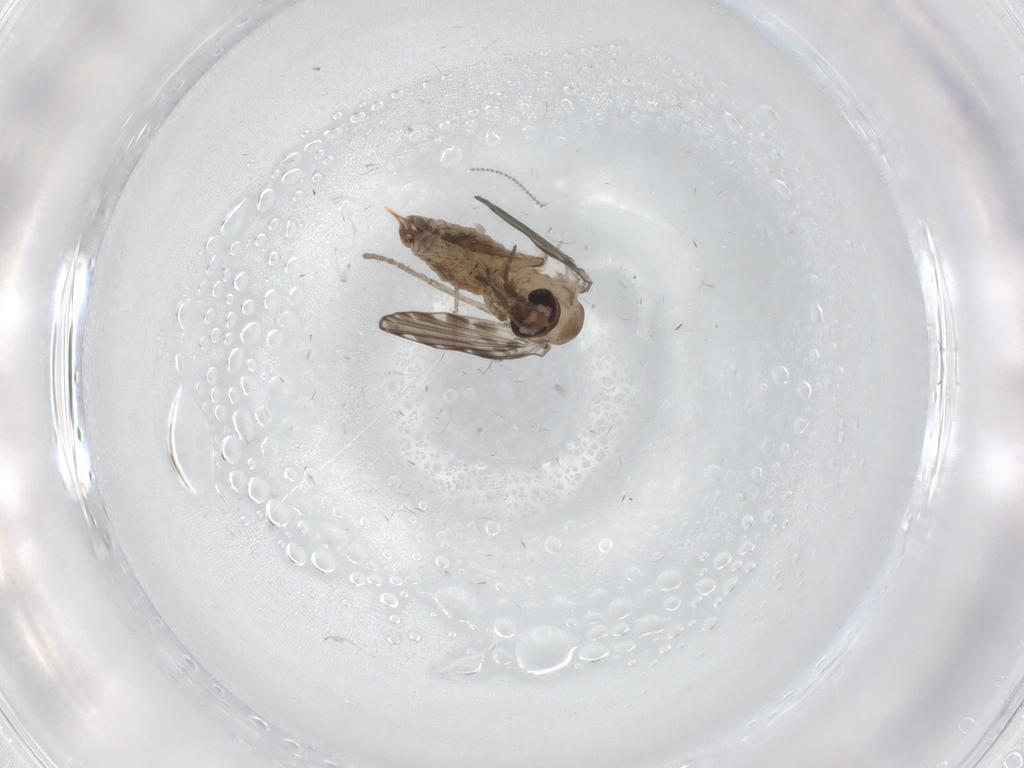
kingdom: Animalia
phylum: Arthropoda
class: Insecta
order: Diptera
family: Psychodidae
